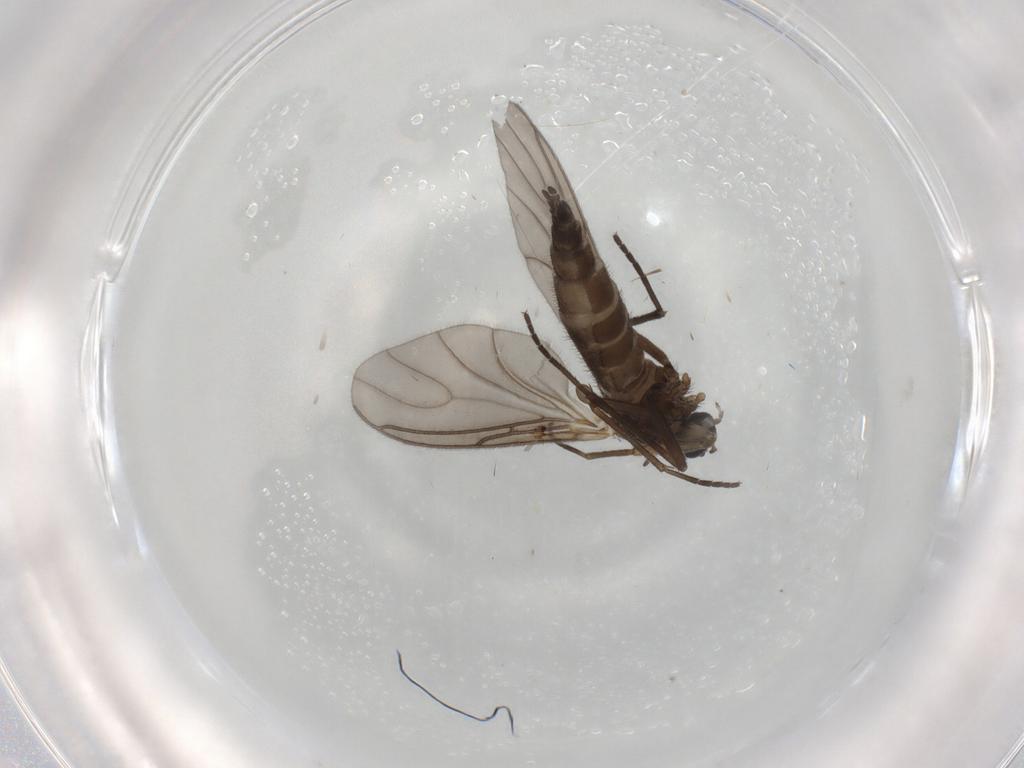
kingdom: Animalia
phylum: Arthropoda
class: Insecta
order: Diptera
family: Sciaridae
